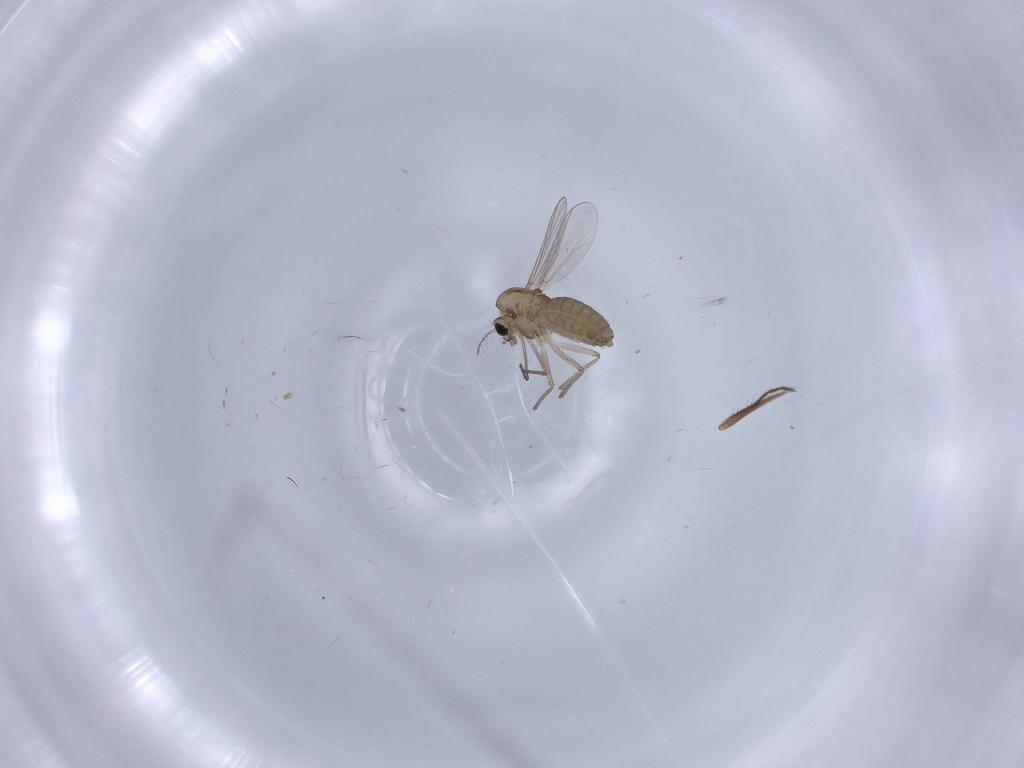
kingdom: Animalia
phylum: Arthropoda
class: Insecta
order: Diptera
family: Chironomidae
